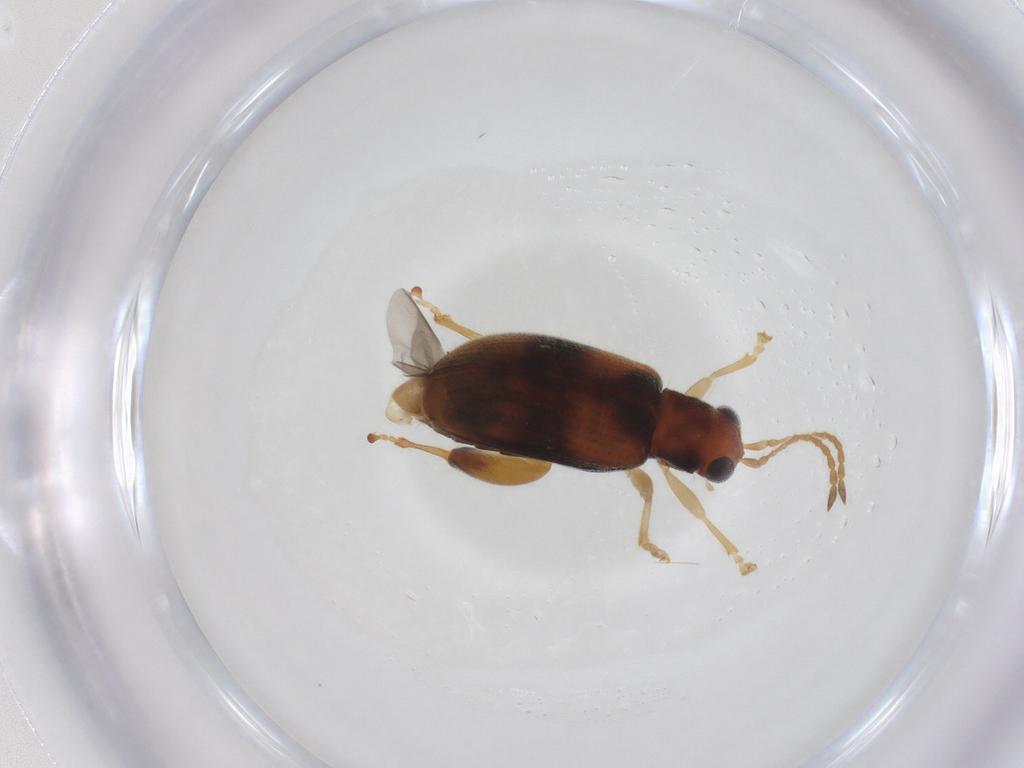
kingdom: Animalia
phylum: Arthropoda
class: Insecta
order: Coleoptera
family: Chrysomelidae
